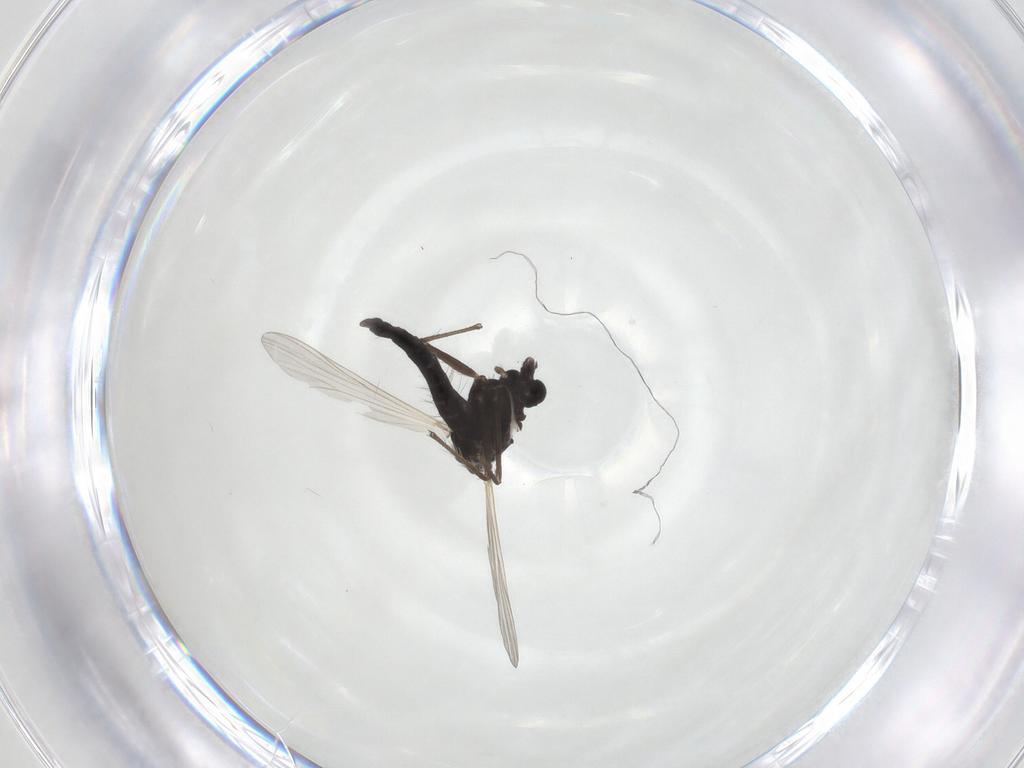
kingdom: Animalia
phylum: Arthropoda
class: Insecta
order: Diptera
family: Chironomidae
